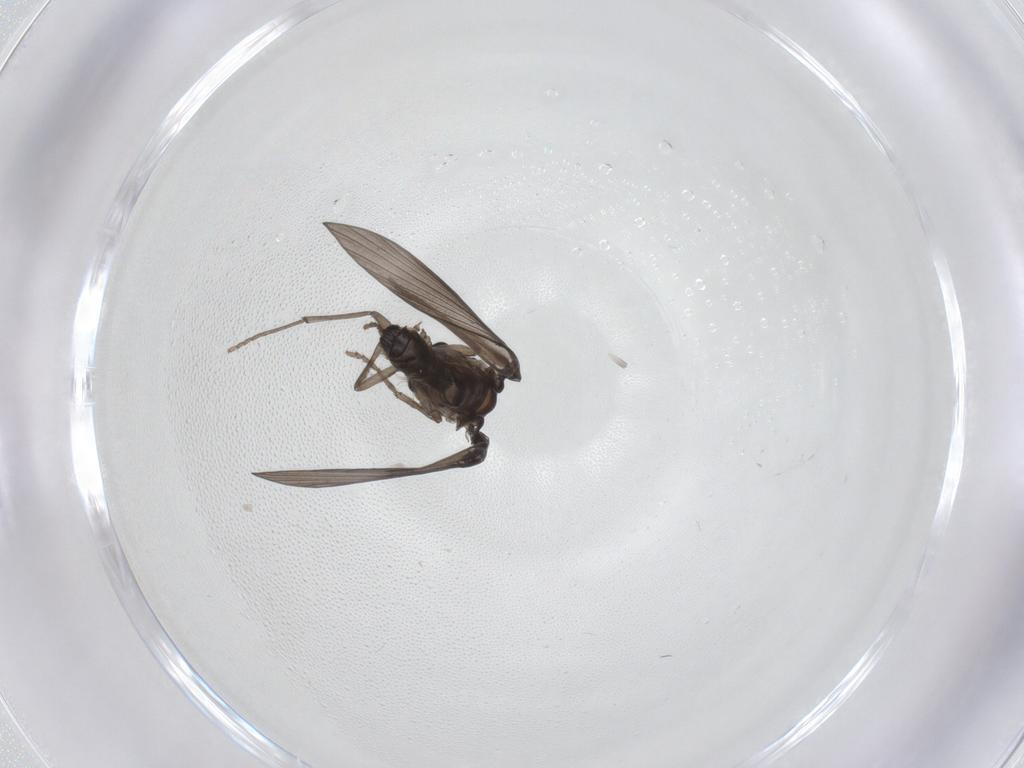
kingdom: Animalia
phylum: Arthropoda
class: Insecta
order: Diptera
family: Psychodidae
